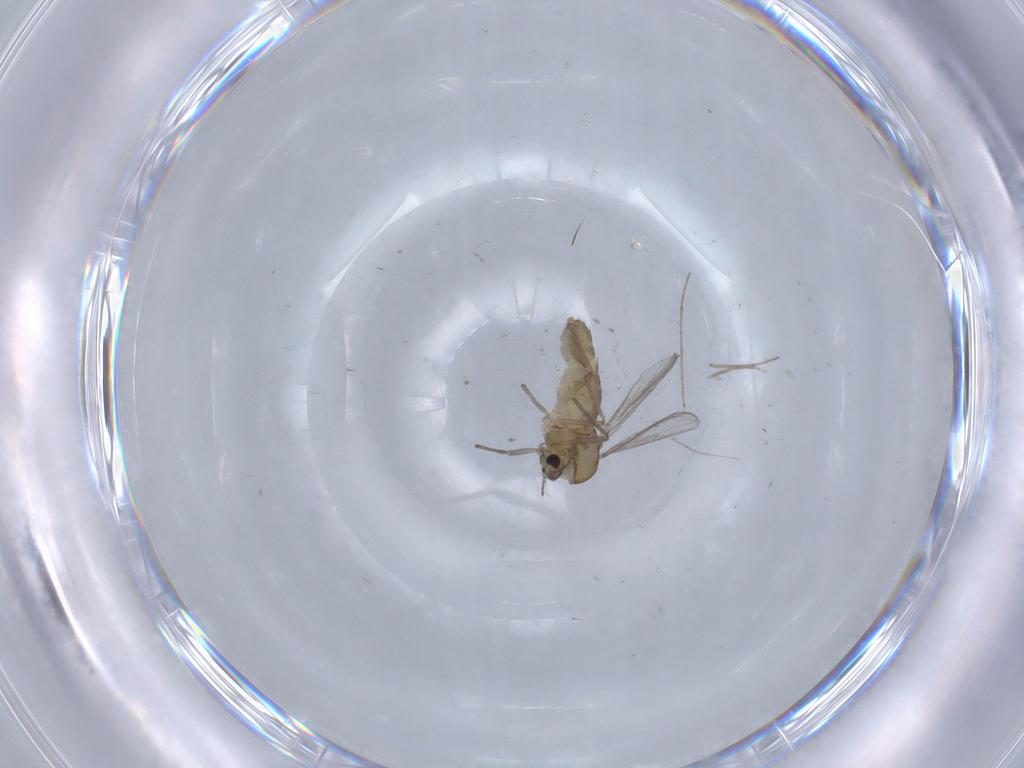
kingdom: Animalia
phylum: Arthropoda
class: Insecta
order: Diptera
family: Chironomidae
